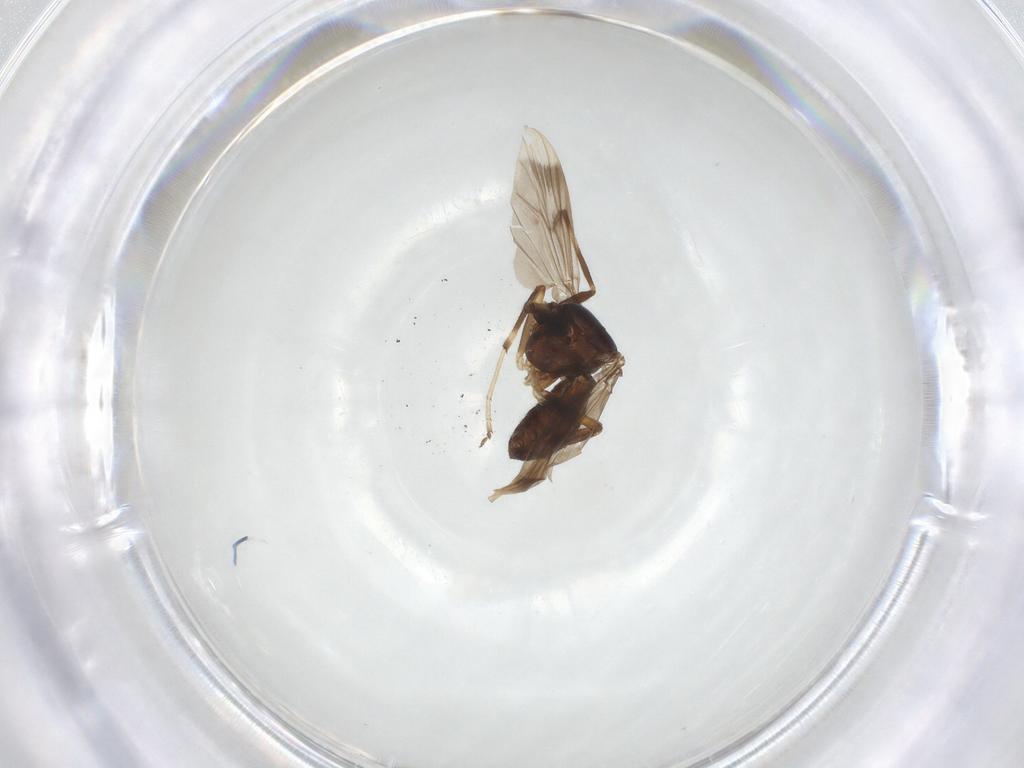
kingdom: Animalia
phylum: Arthropoda
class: Insecta
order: Diptera
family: Chironomidae
